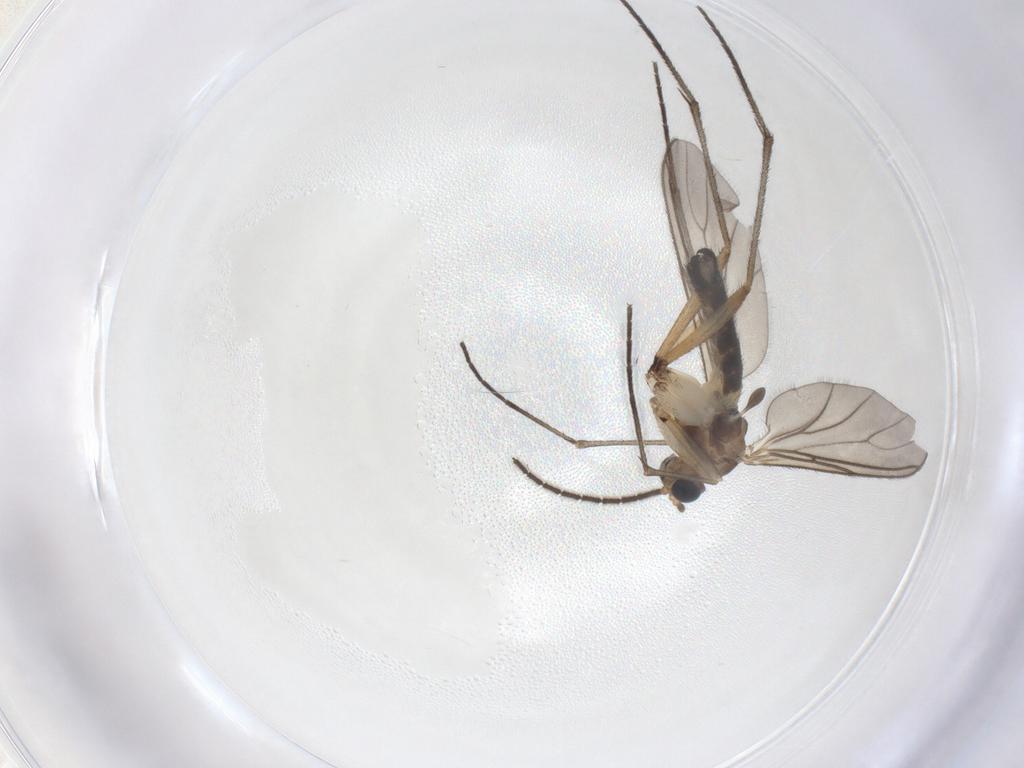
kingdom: Animalia
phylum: Arthropoda
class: Insecta
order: Diptera
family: Sciaridae
